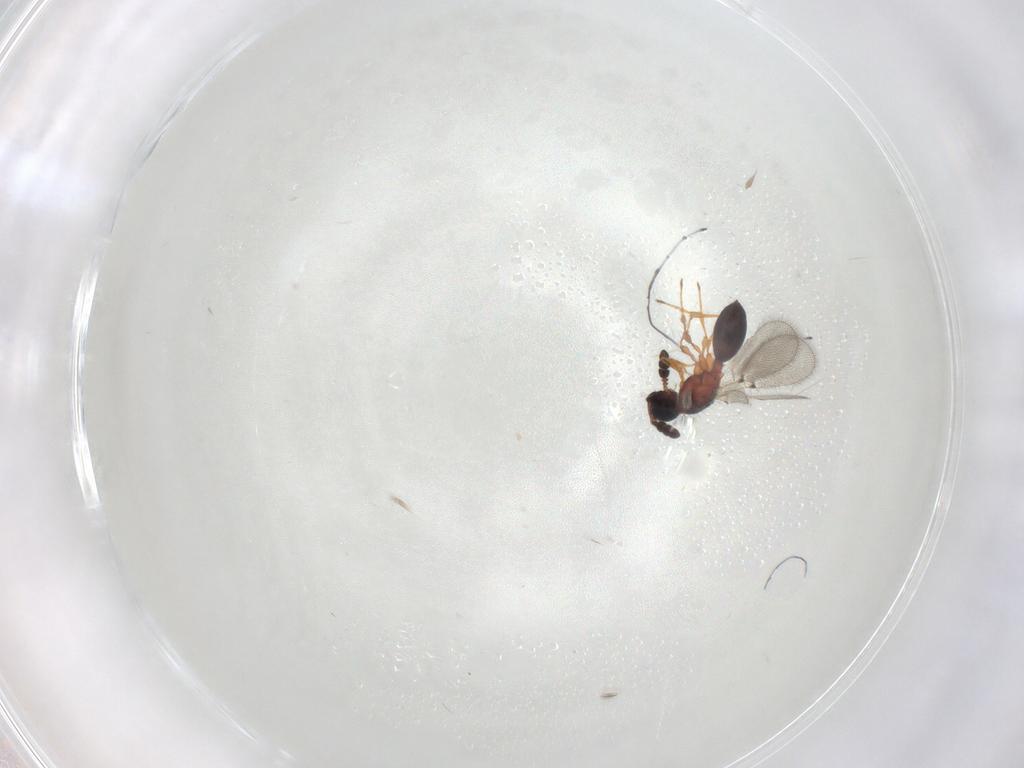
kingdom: Animalia
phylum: Arthropoda
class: Insecta
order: Hymenoptera
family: Diapriidae
